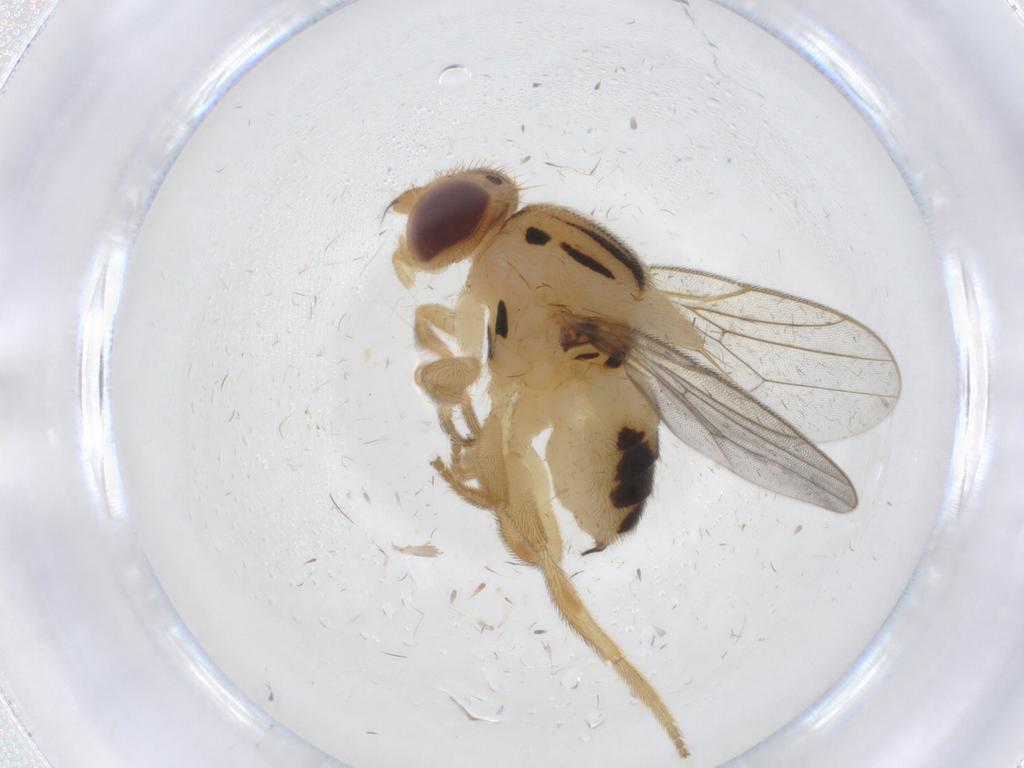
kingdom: Animalia
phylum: Arthropoda
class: Insecta
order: Diptera
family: Chloropidae
